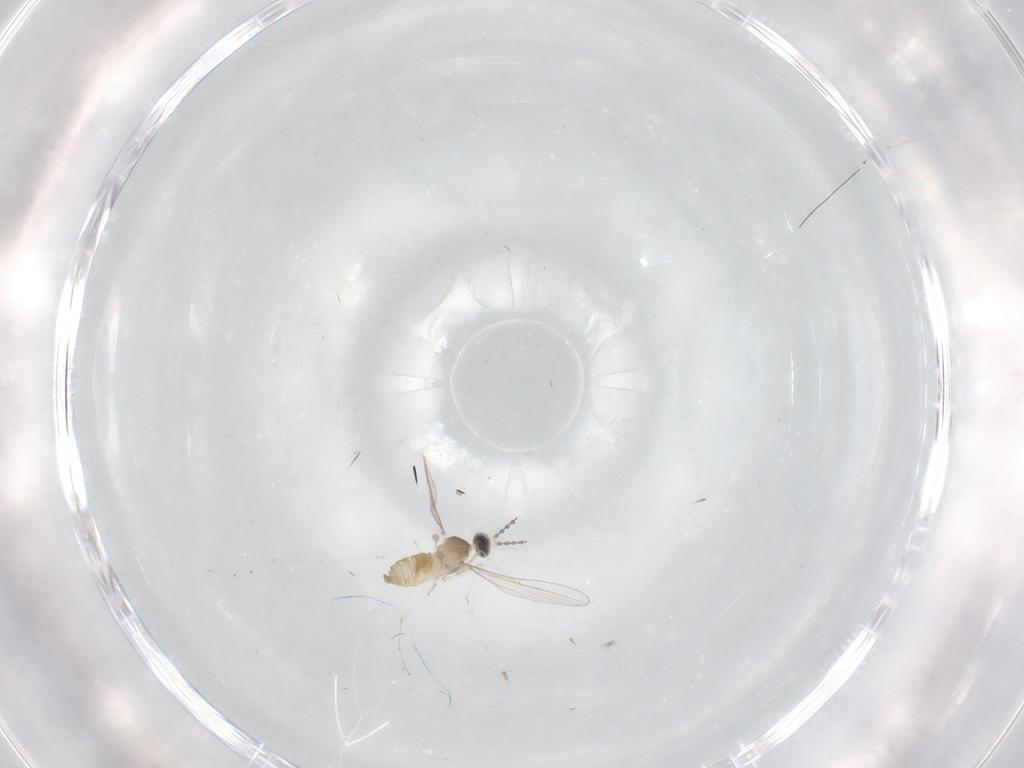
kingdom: Animalia
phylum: Arthropoda
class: Insecta
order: Diptera
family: Cecidomyiidae
